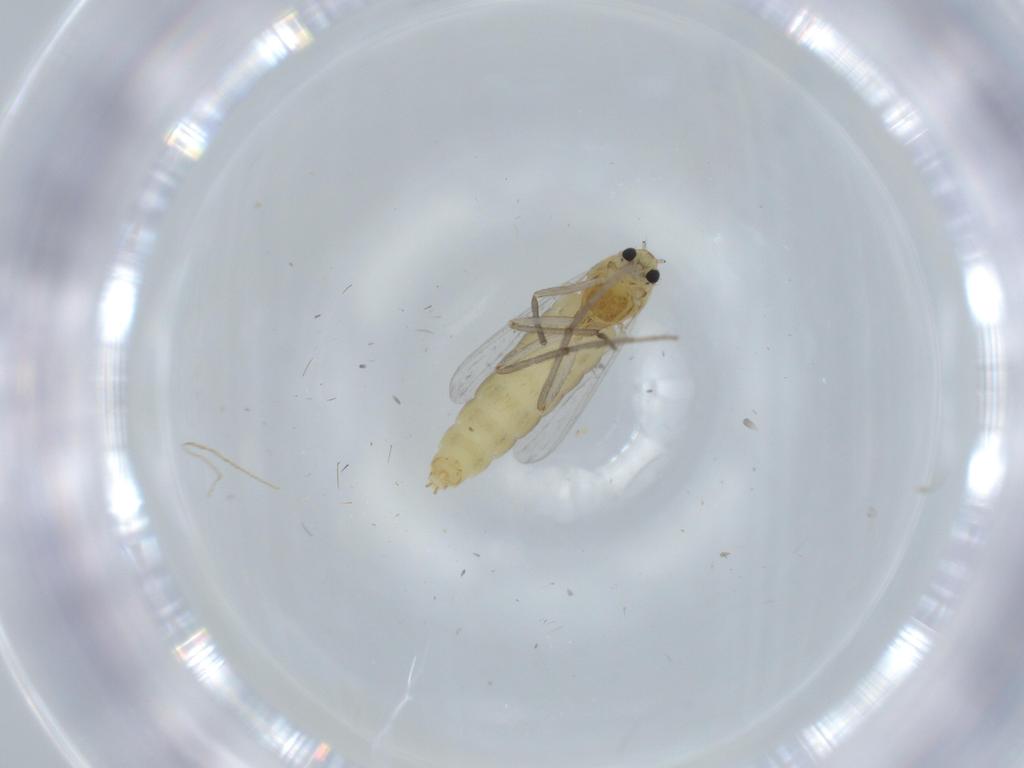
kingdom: Animalia
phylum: Arthropoda
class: Insecta
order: Diptera
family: Chironomidae
